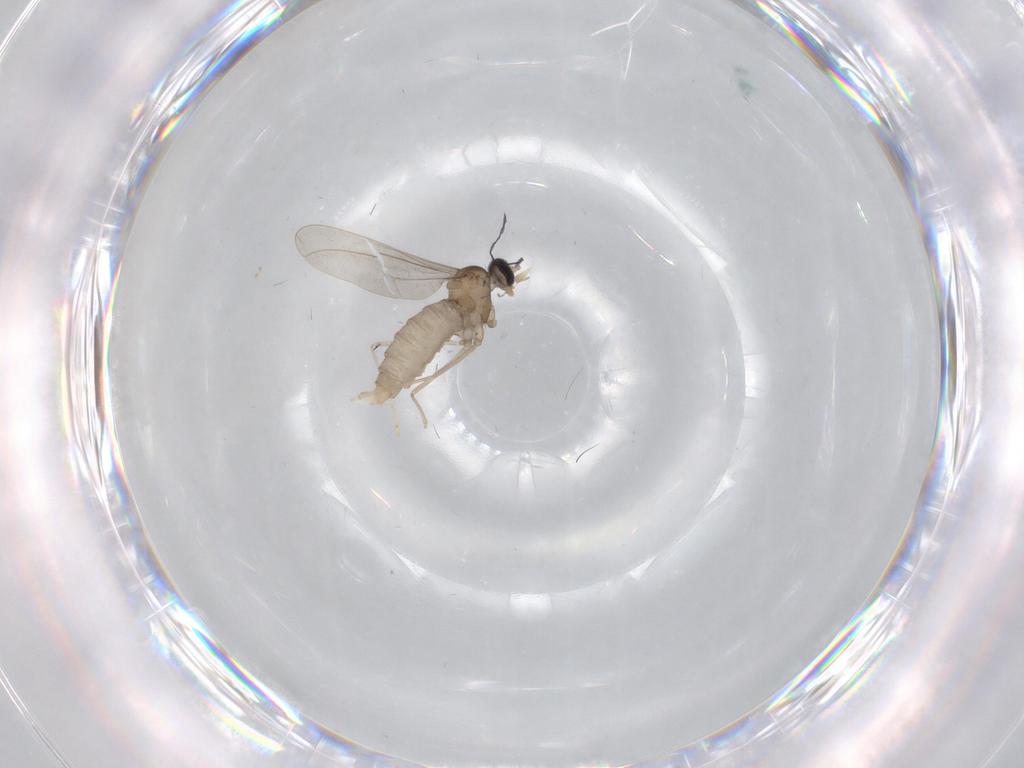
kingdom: Animalia
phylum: Arthropoda
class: Insecta
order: Diptera
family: Cecidomyiidae
